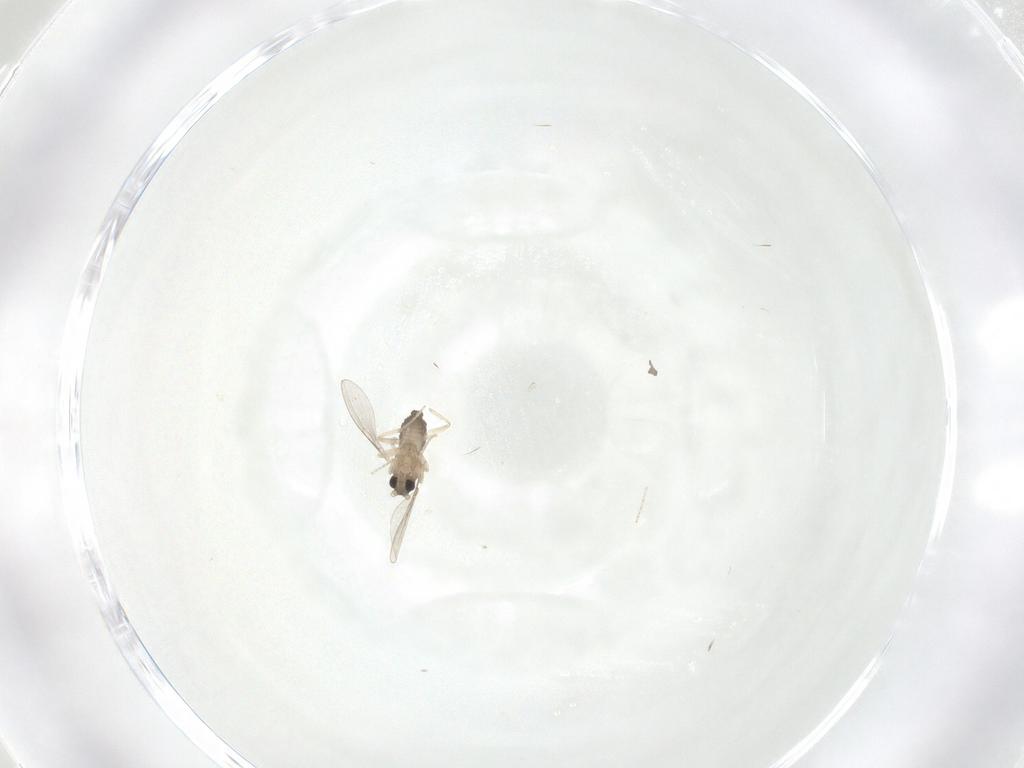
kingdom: Animalia
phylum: Arthropoda
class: Insecta
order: Diptera
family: Cecidomyiidae
